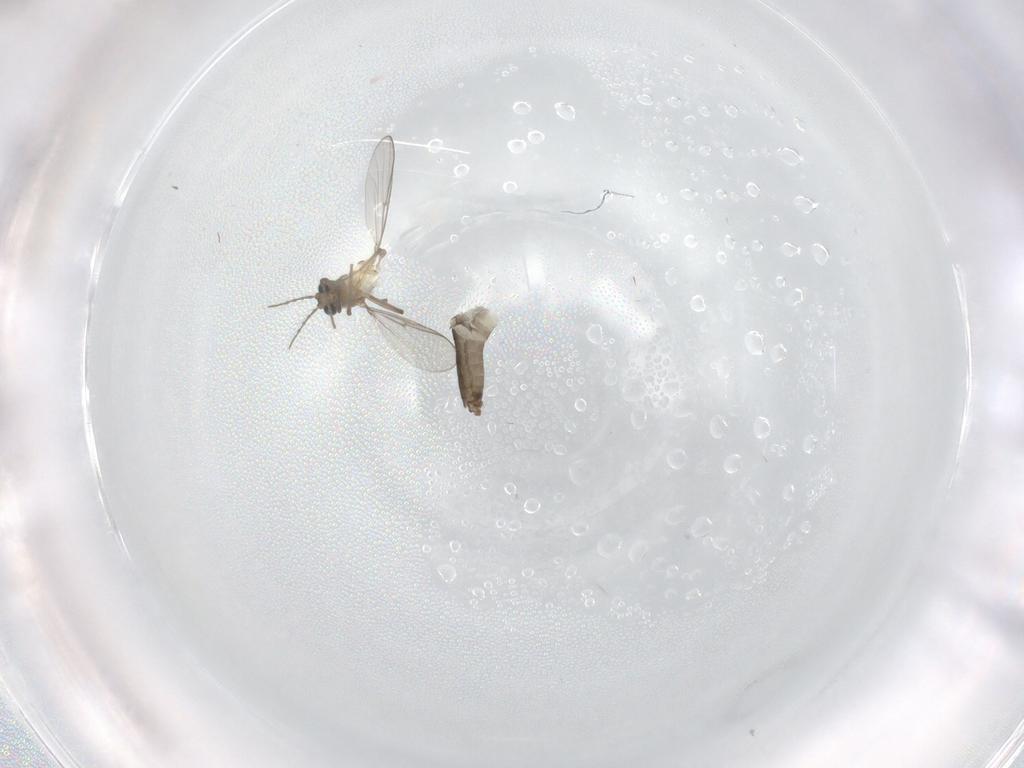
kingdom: Animalia
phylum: Arthropoda
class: Insecta
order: Diptera
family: Chironomidae
